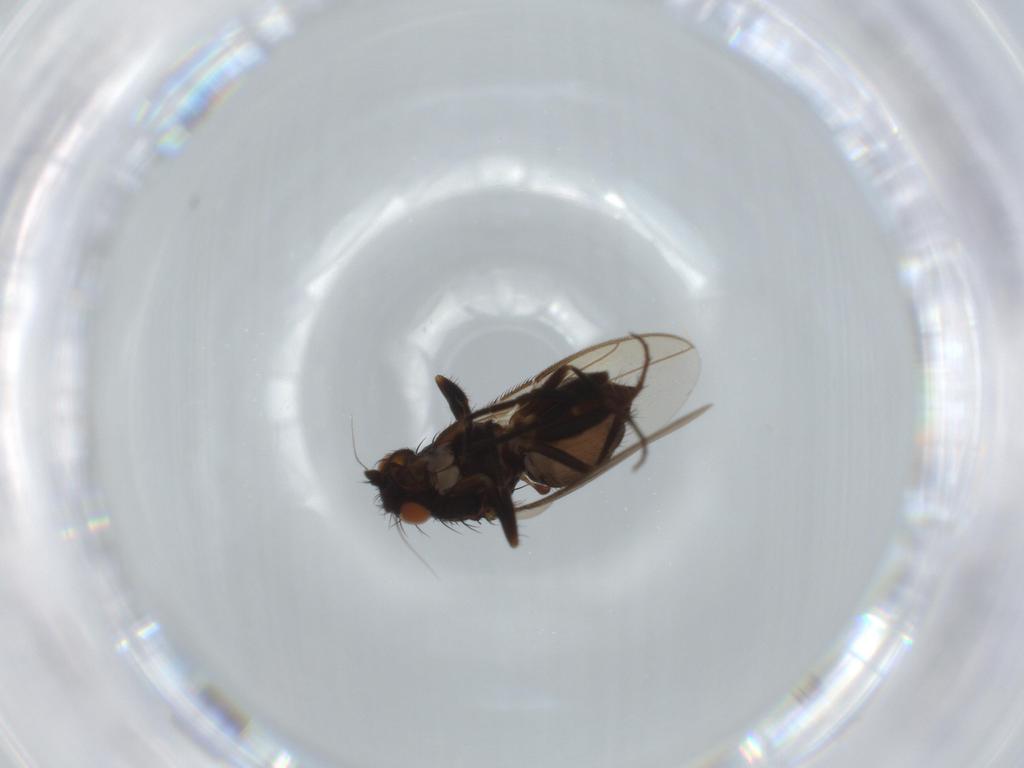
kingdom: Animalia
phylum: Arthropoda
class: Insecta
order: Diptera
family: Sphaeroceridae
